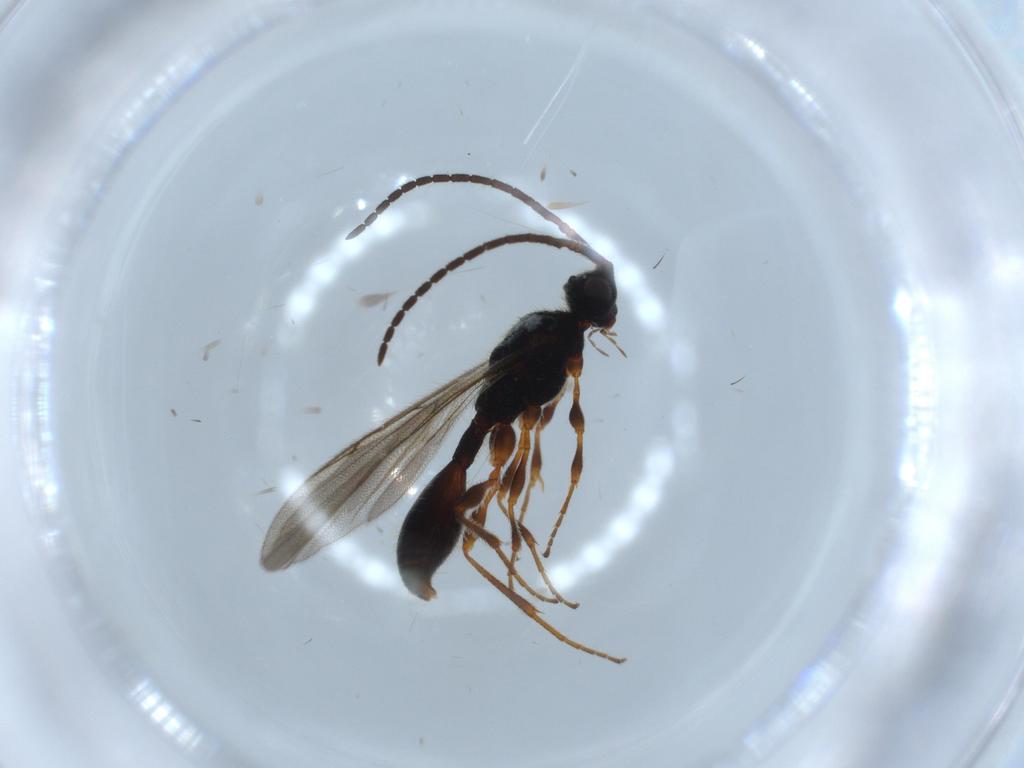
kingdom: Animalia
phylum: Arthropoda
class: Insecta
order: Hymenoptera
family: Diapriidae
